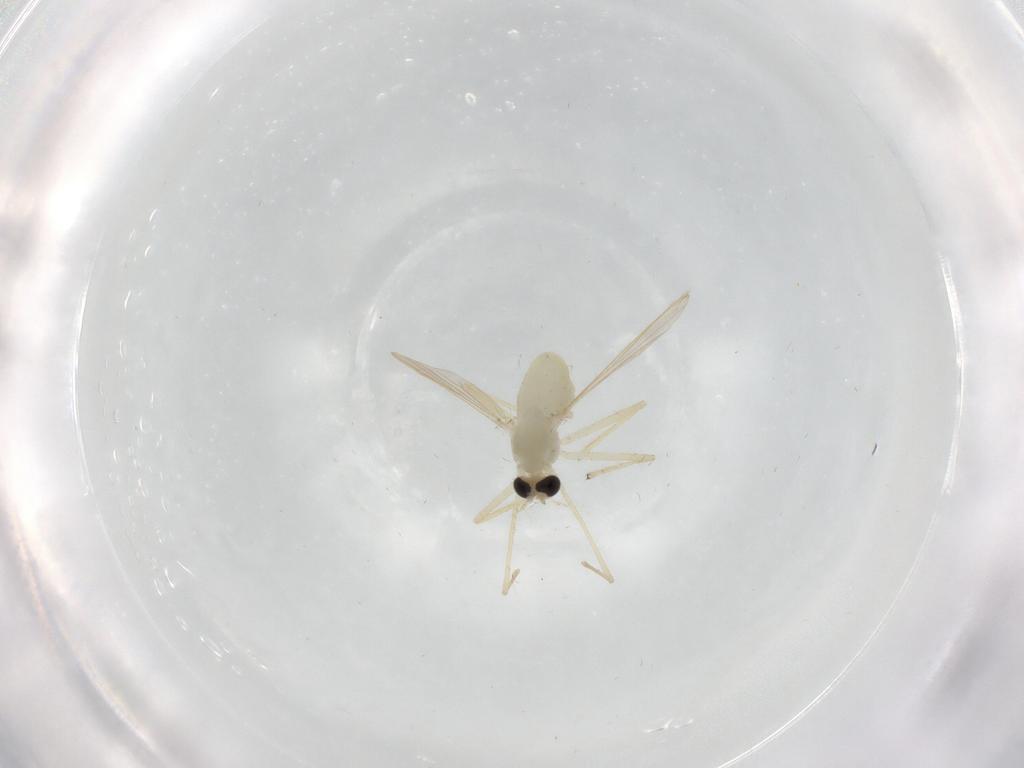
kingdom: Animalia
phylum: Arthropoda
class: Insecta
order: Diptera
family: Chironomidae
